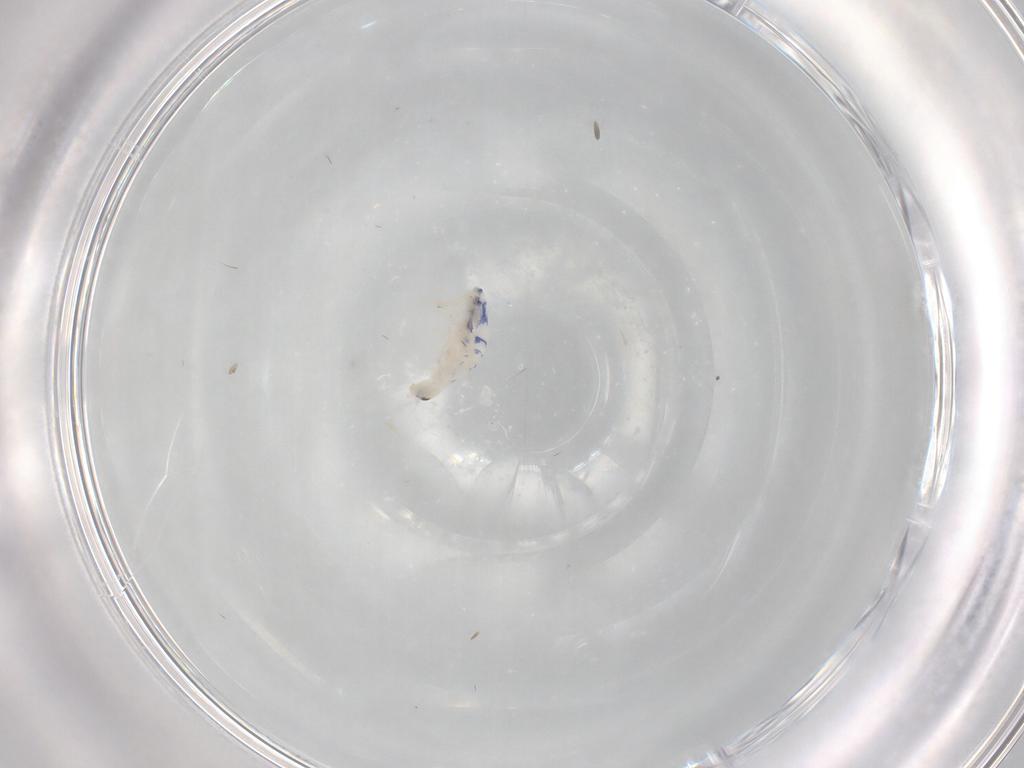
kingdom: Animalia
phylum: Arthropoda
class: Collembola
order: Entomobryomorpha
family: Entomobryidae
